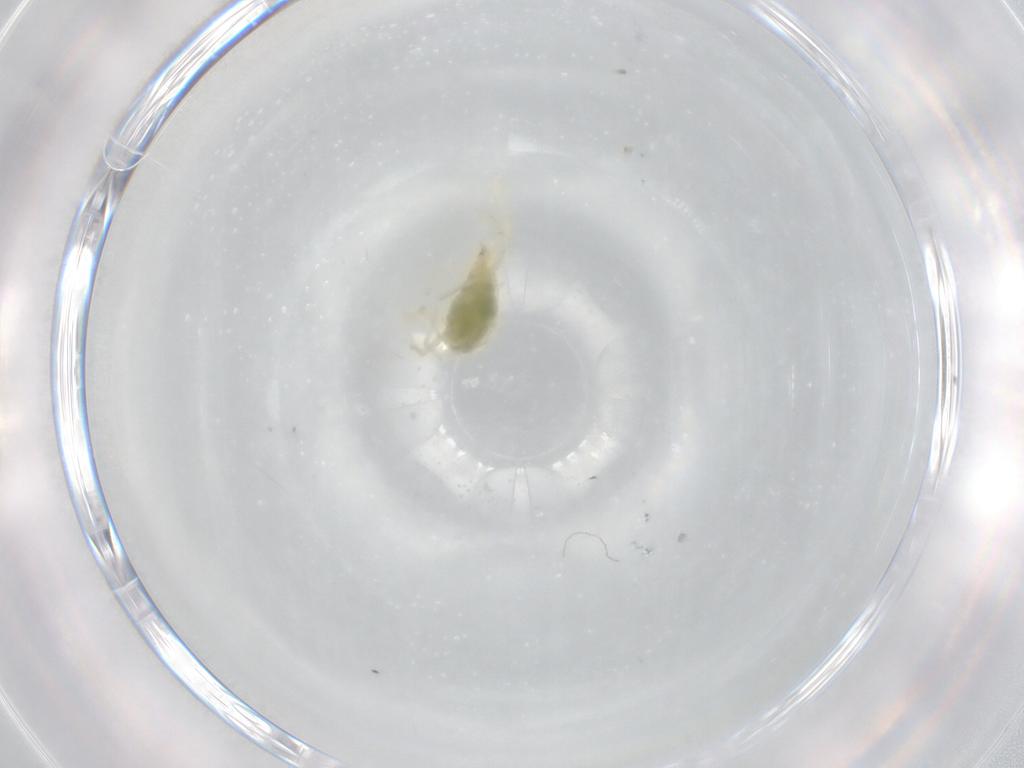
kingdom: Animalia
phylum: Arthropoda
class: Arachnida
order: Trombidiformes
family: Erythraeidae
